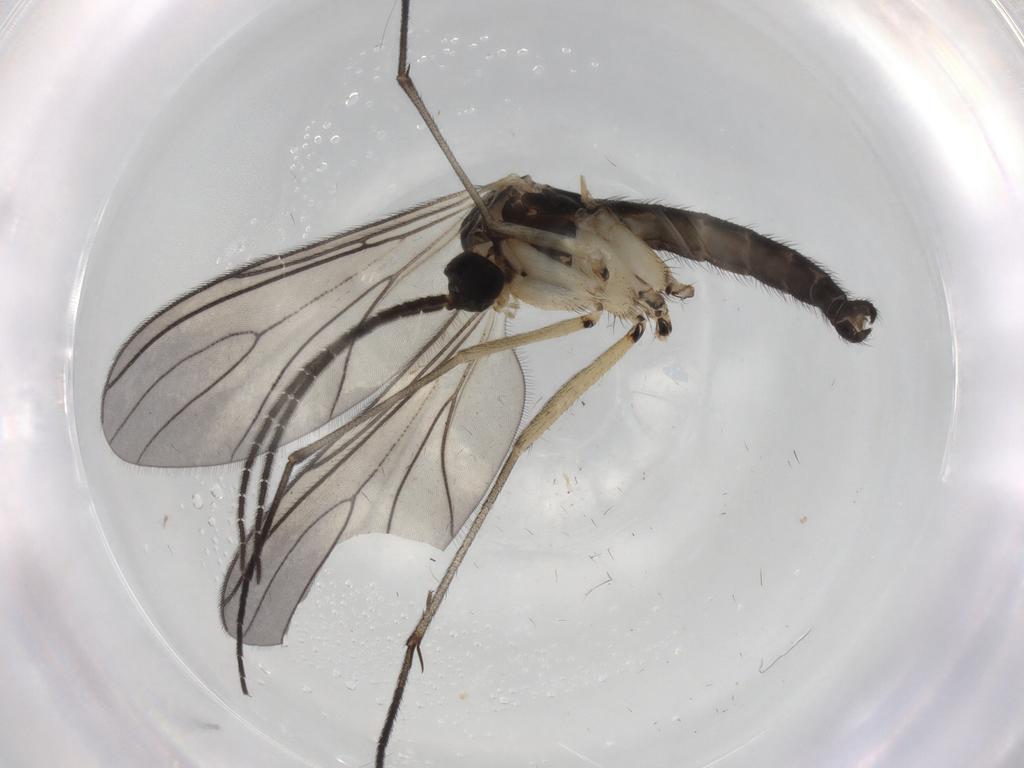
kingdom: Animalia
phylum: Arthropoda
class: Insecta
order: Diptera
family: Sciaridae
